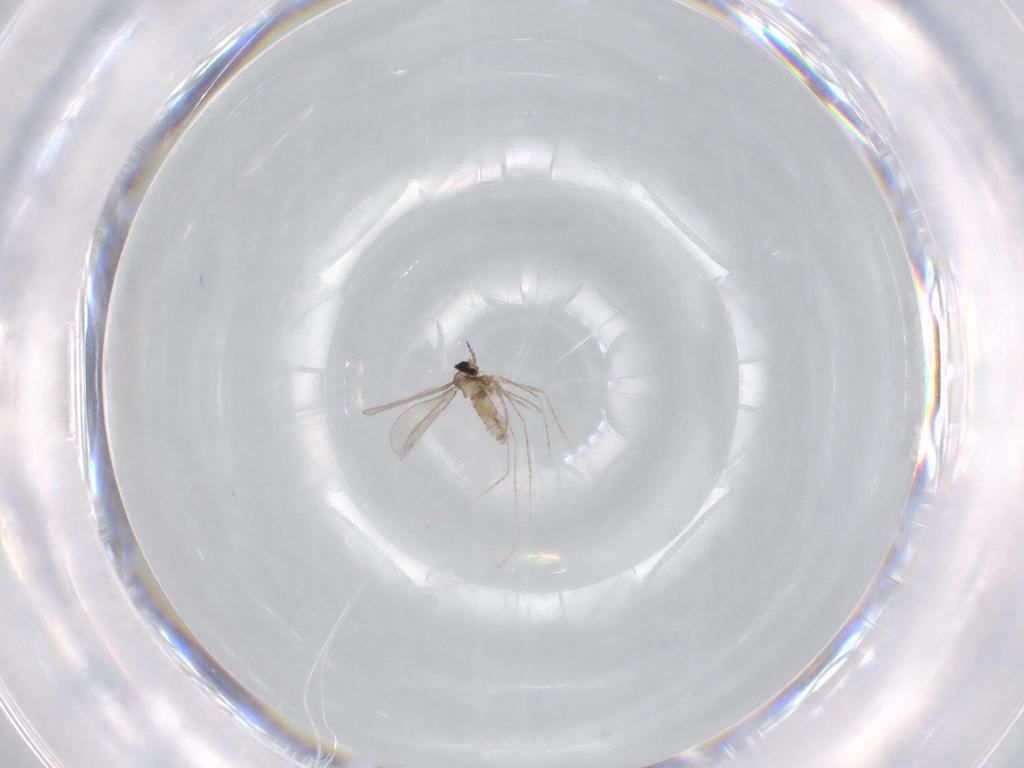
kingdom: Animalia
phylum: Arthropoda
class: Insecta
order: Diptera
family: Cecidomyiidae
